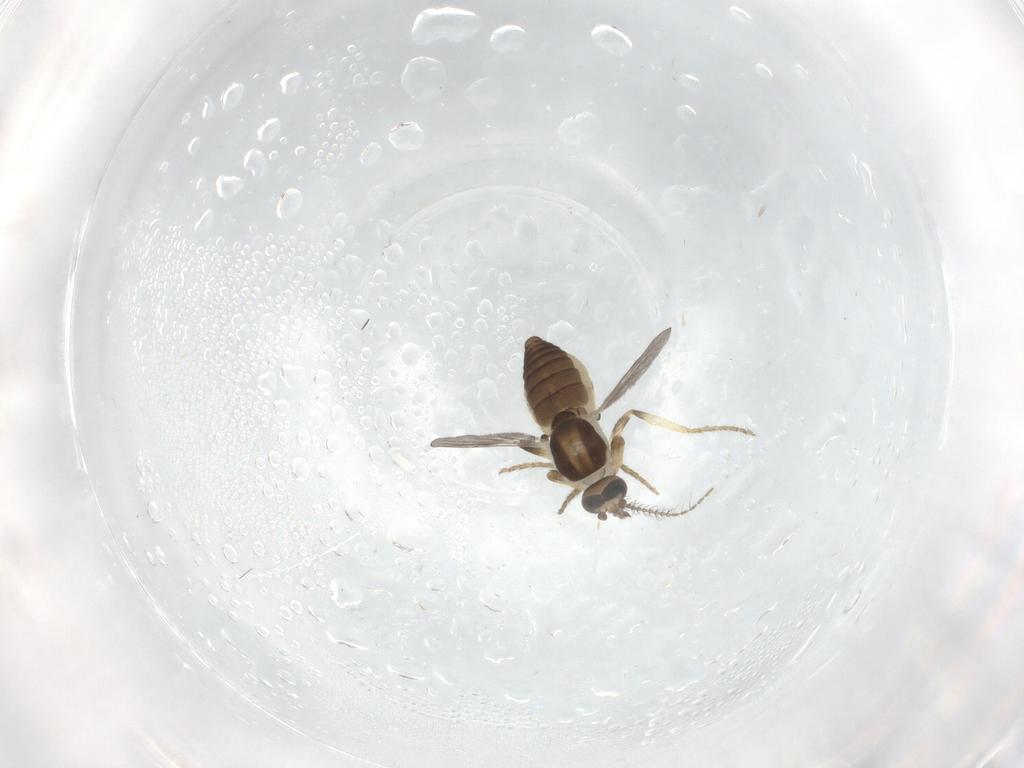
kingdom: Animalia
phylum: Arthropoda
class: Insecta
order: Diptera
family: Ceratopogonidae
